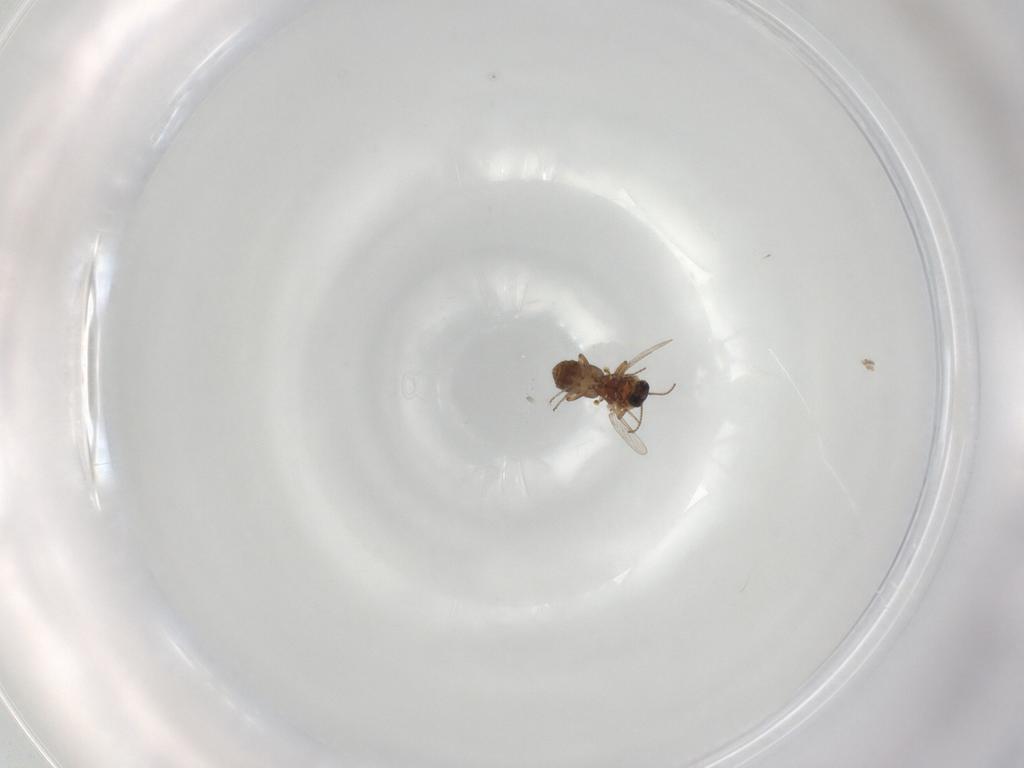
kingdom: Animalia
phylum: Arthropoda
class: Insecta
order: Diptera
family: Ceratopogonidae
